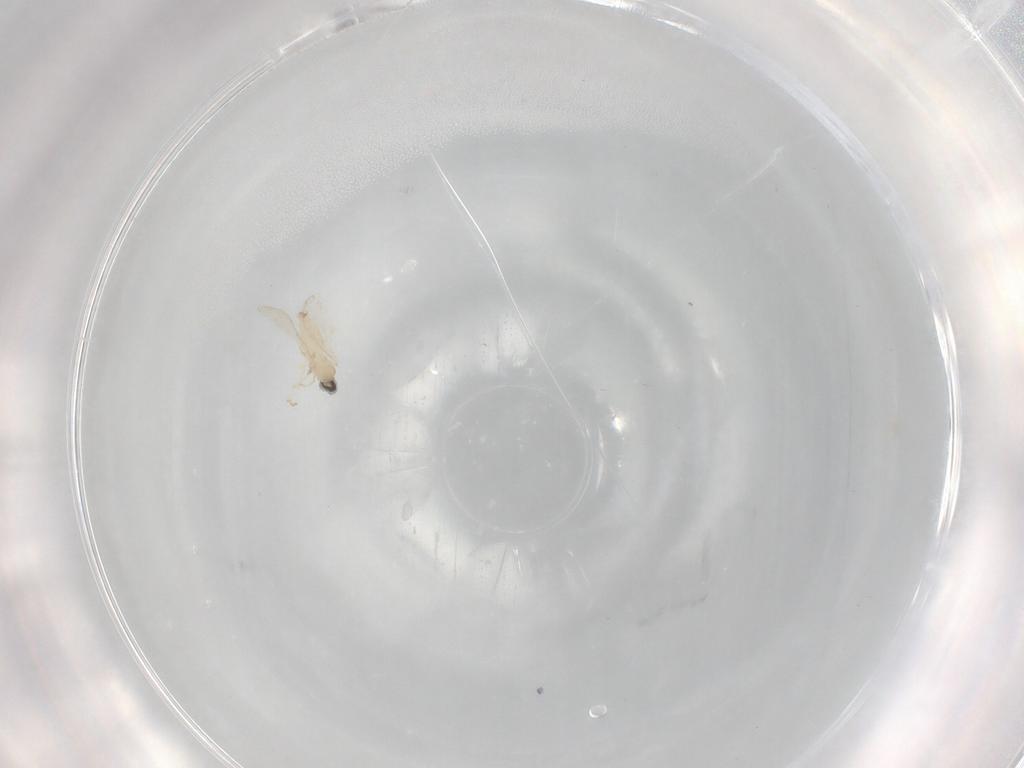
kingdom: Animalia
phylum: Arthropoda
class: Insecta
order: Diptera
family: Cecidomyiidae
